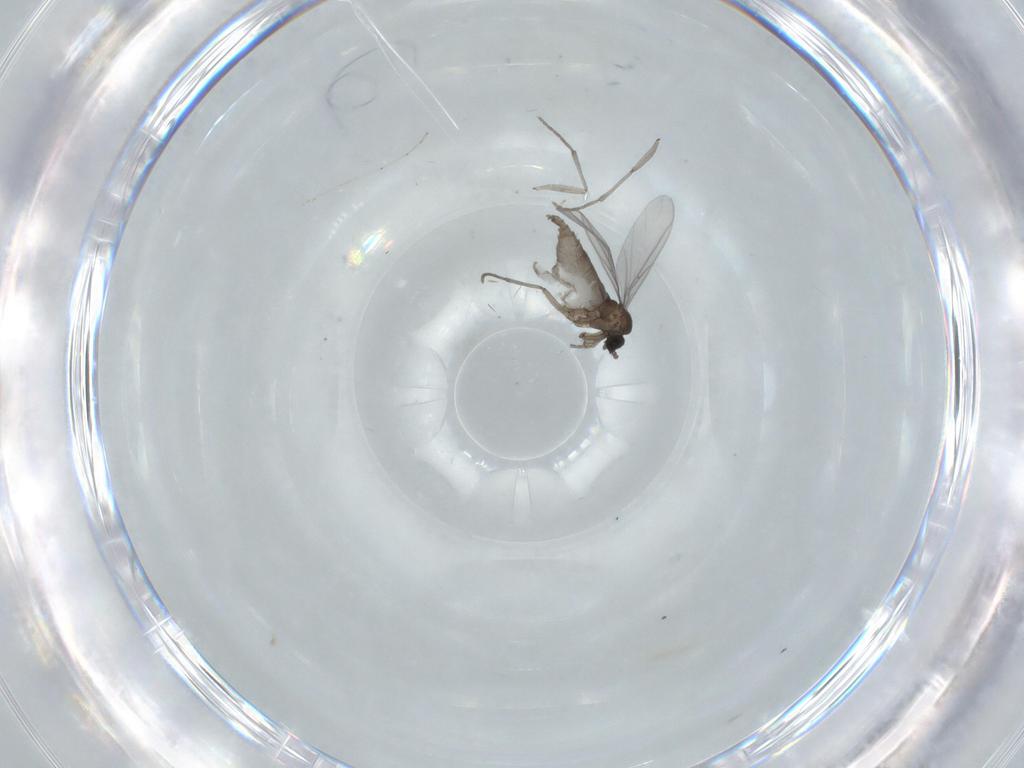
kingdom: Animalia
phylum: Arthropoda
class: Insecta
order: Diptera
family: Sciaridae
